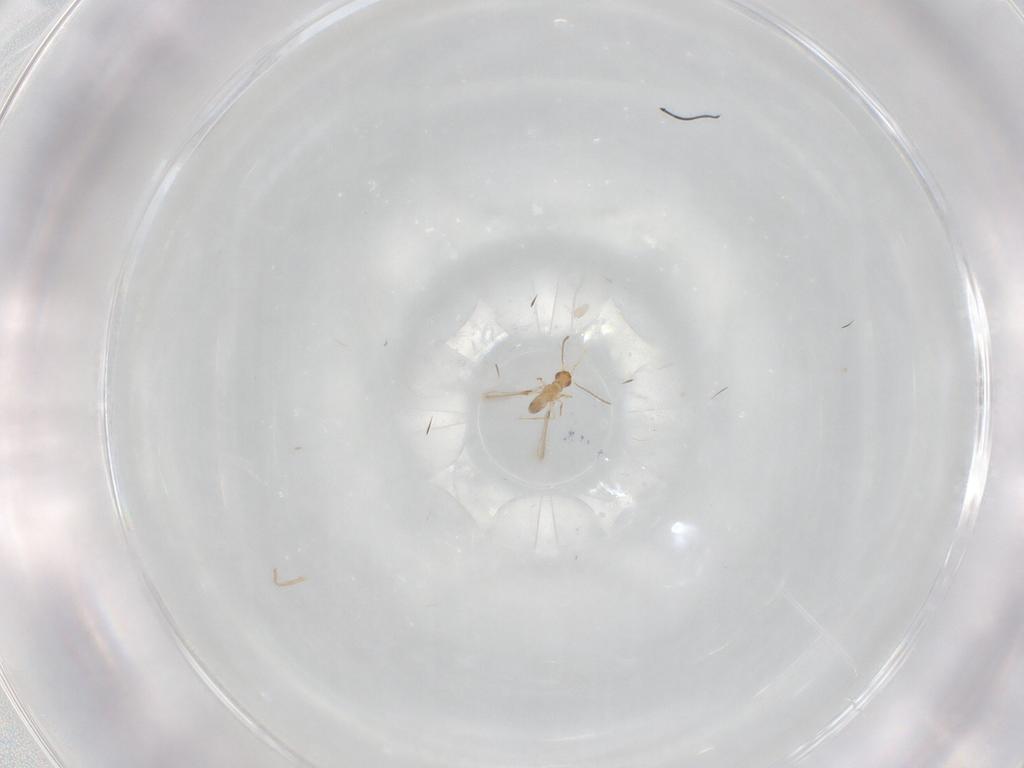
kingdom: Animalia
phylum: Arthropoda
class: Insecta
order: Hymenoptera
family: Mymaridae
